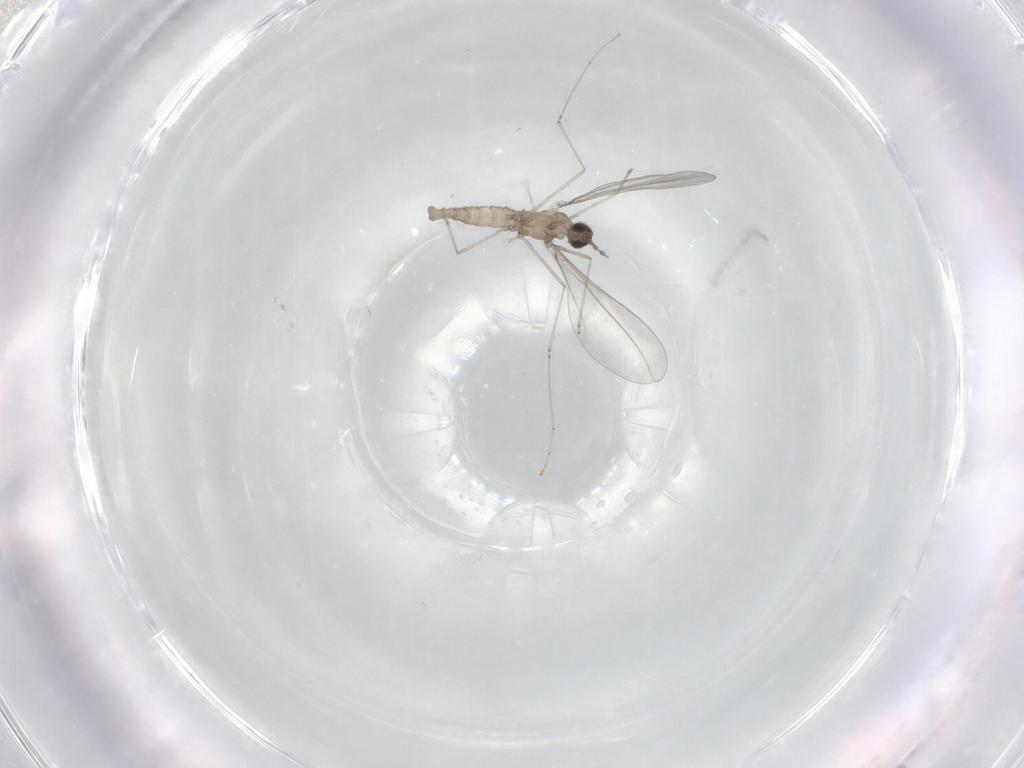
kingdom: Animalia
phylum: Arthropoda
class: Insecta
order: Diptera
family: Cecidomyiidae
